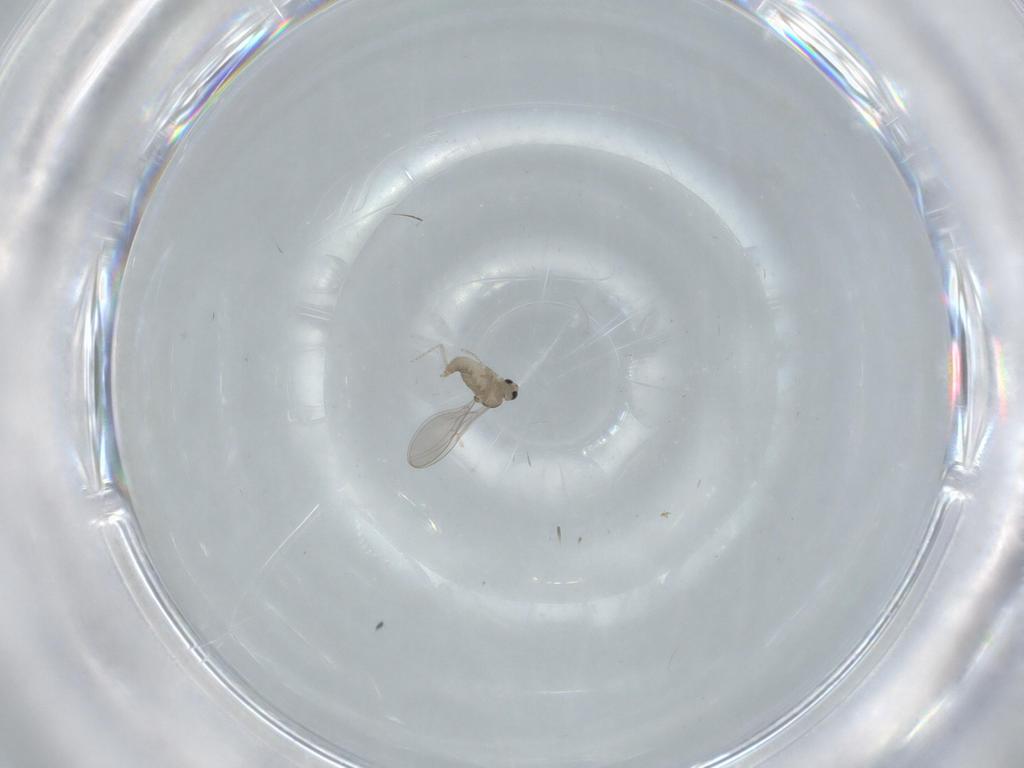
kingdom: Animalia
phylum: Arthropoda
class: Insecta
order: Diptera
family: Cecidomyiidae
